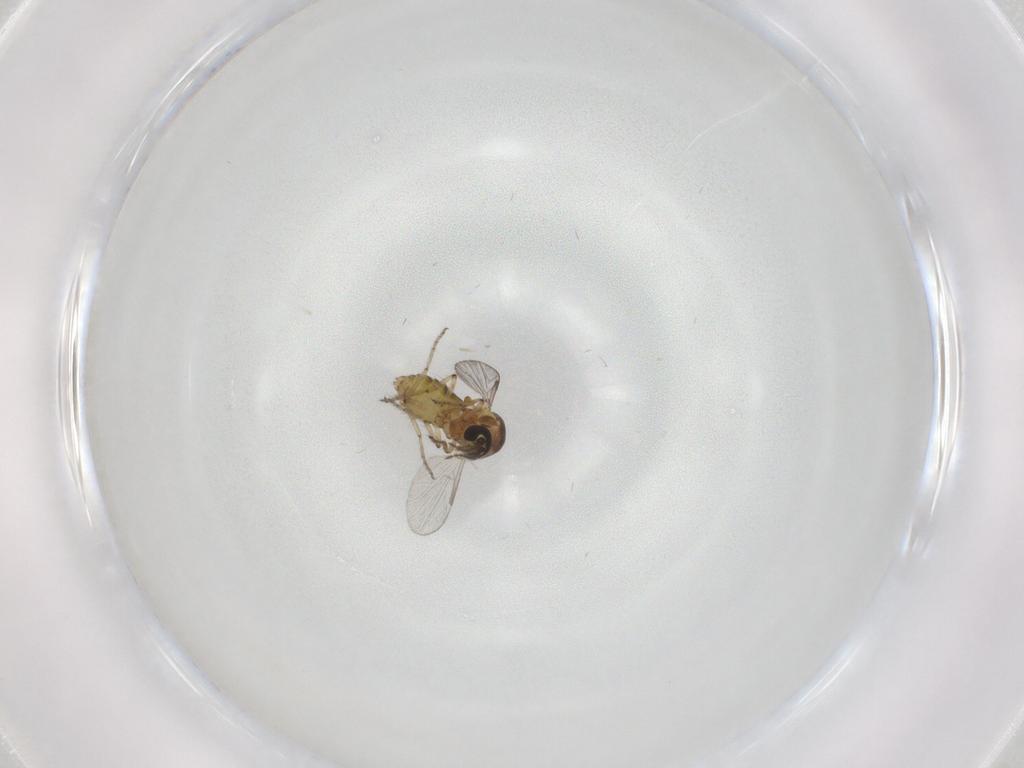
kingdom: Animalia
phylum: Arthropoda
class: Insecta
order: Diptera
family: Ceratopogonidae
